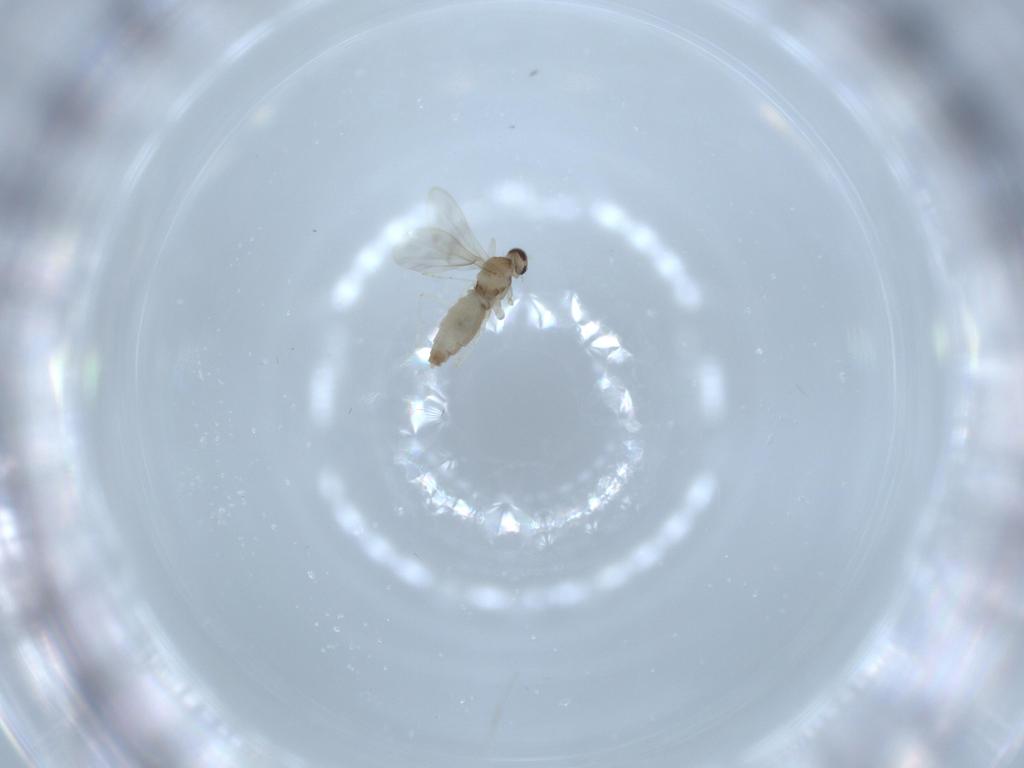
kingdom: Animalia
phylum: Arthropoda
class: Insecta
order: Diptera
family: Cecidomyiidae
